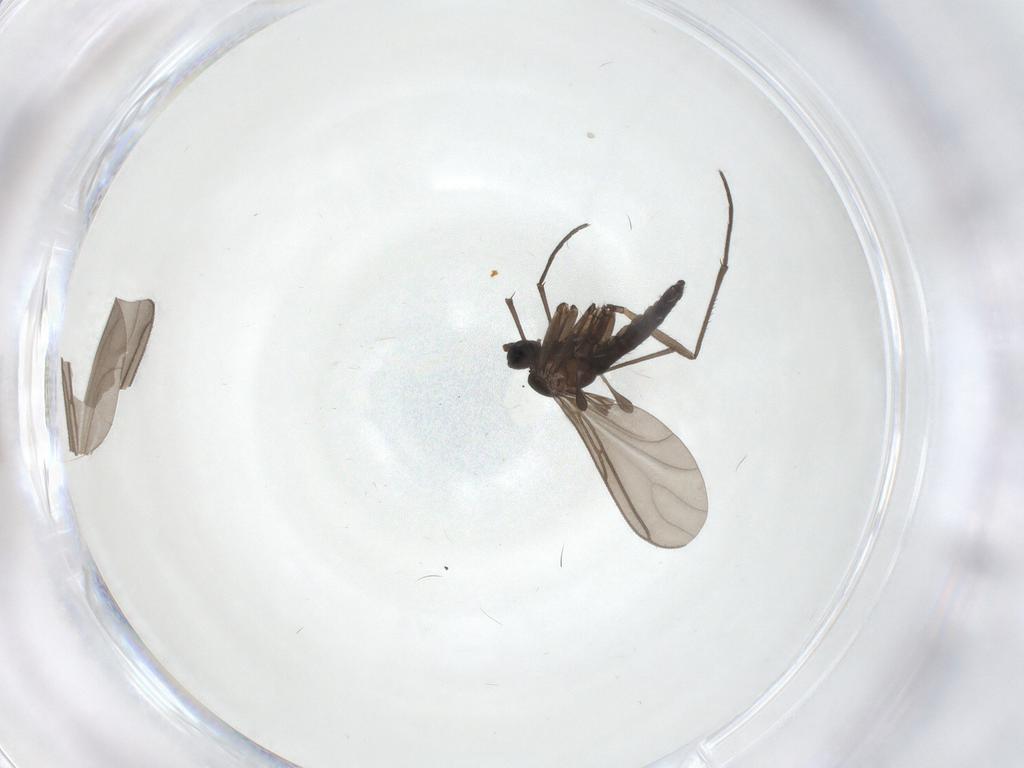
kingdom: Animalia
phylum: Arthropoda
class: Insecta
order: Diptera
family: Sciaridae
